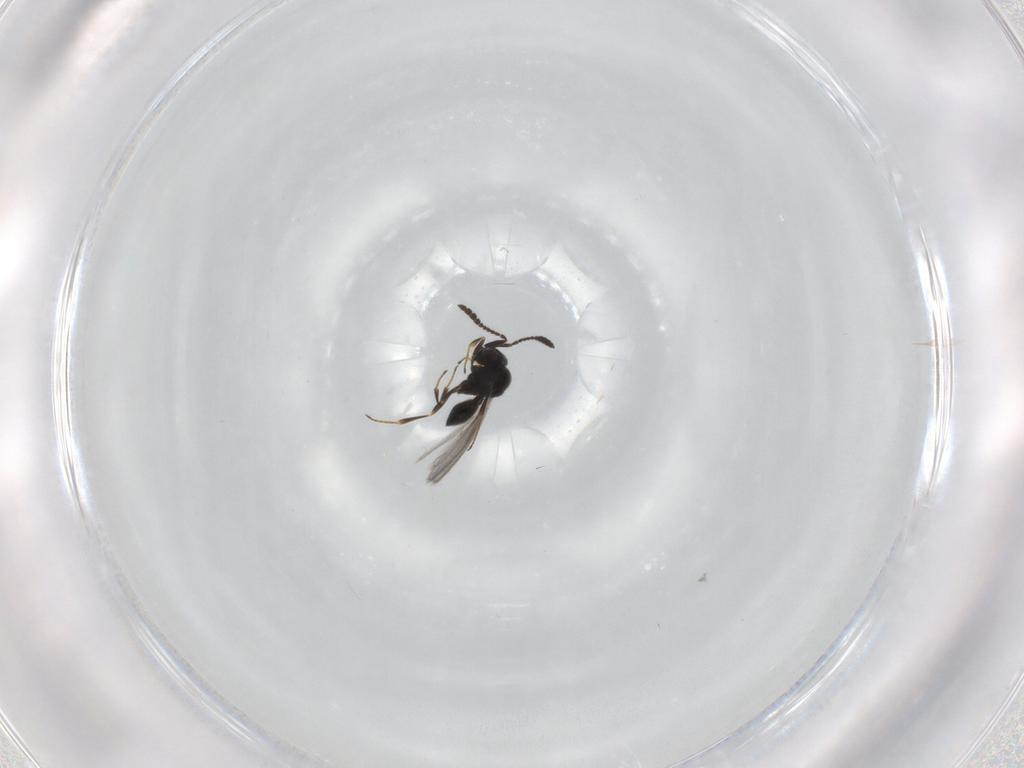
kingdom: Animalia
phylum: Arthropoda
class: Insecta
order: Hymenoptera
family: Scelionidae
